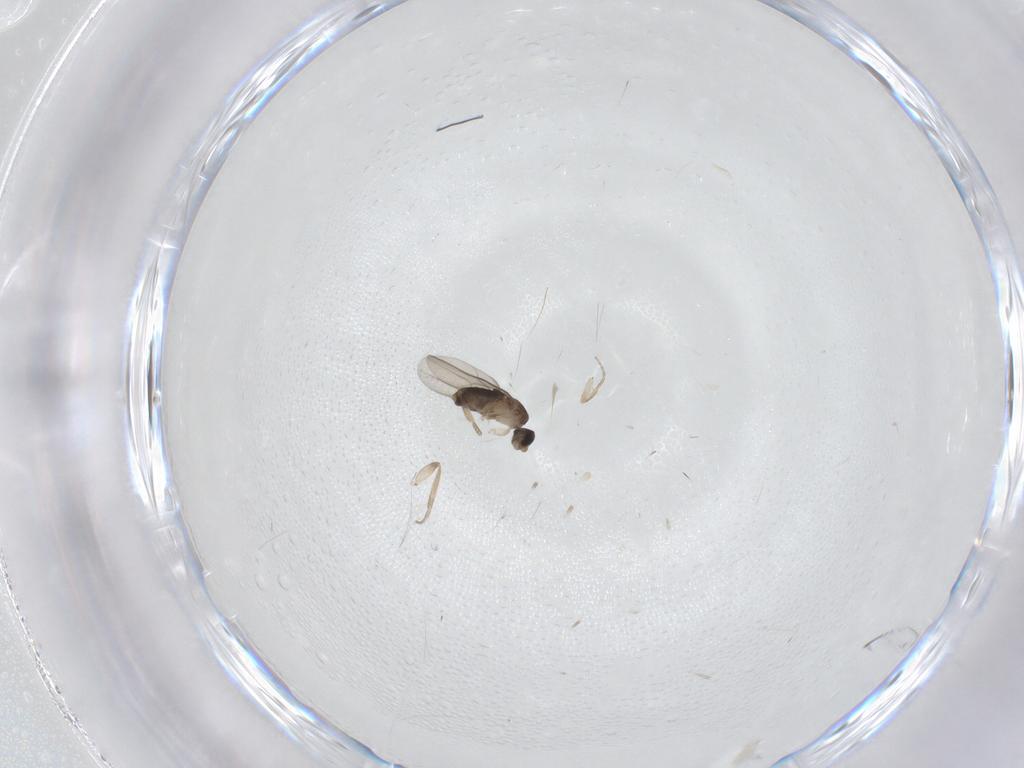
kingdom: Animalia
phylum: Arthropoda
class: Insecta
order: Diptera
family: Phoridae
